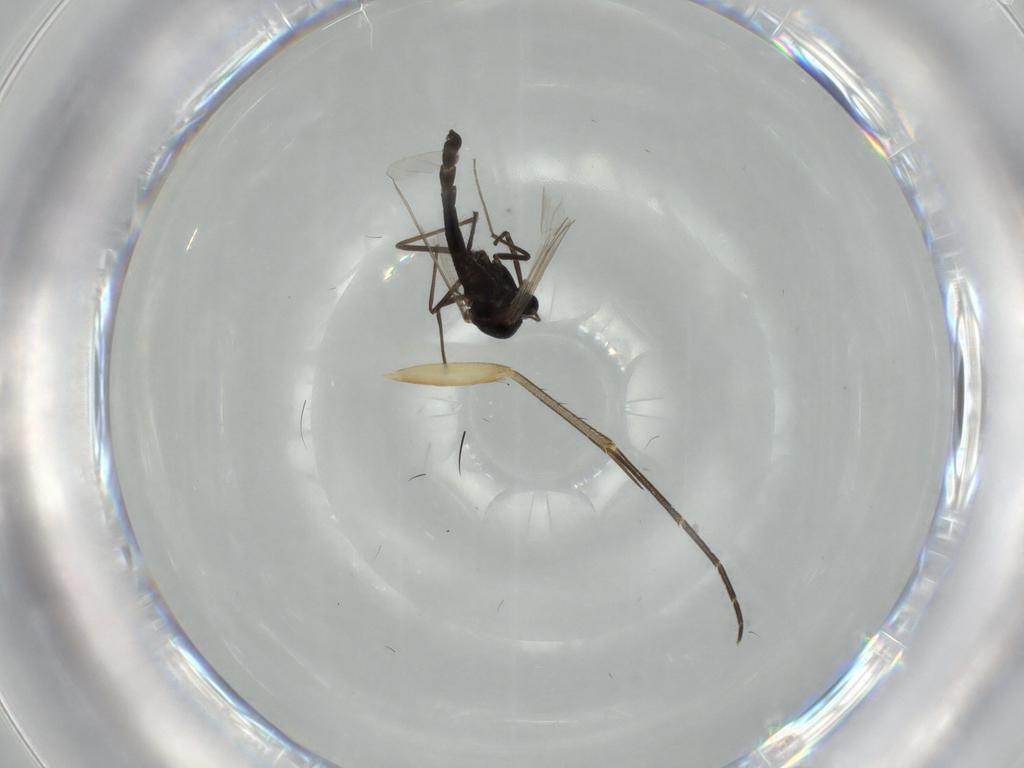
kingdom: Animalia
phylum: Arthropoda
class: Insecta
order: Diptera
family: Chironomidae
